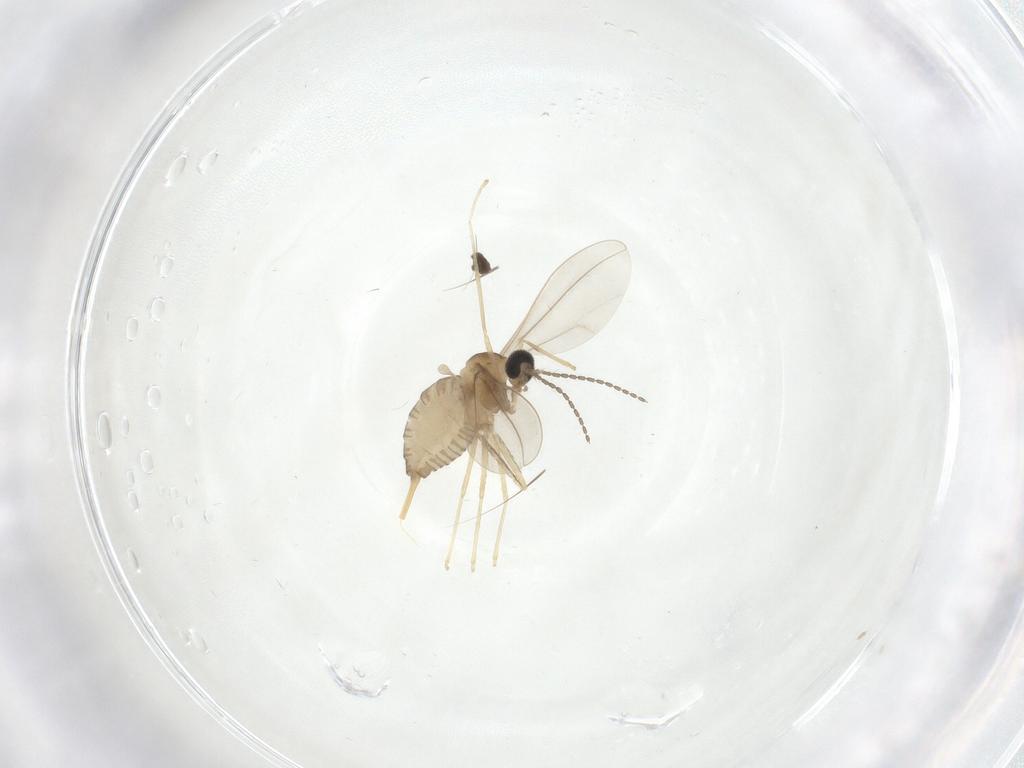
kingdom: Animalia
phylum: Arthropoda
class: Insecta
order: Diptera
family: Cecidomyiidae
